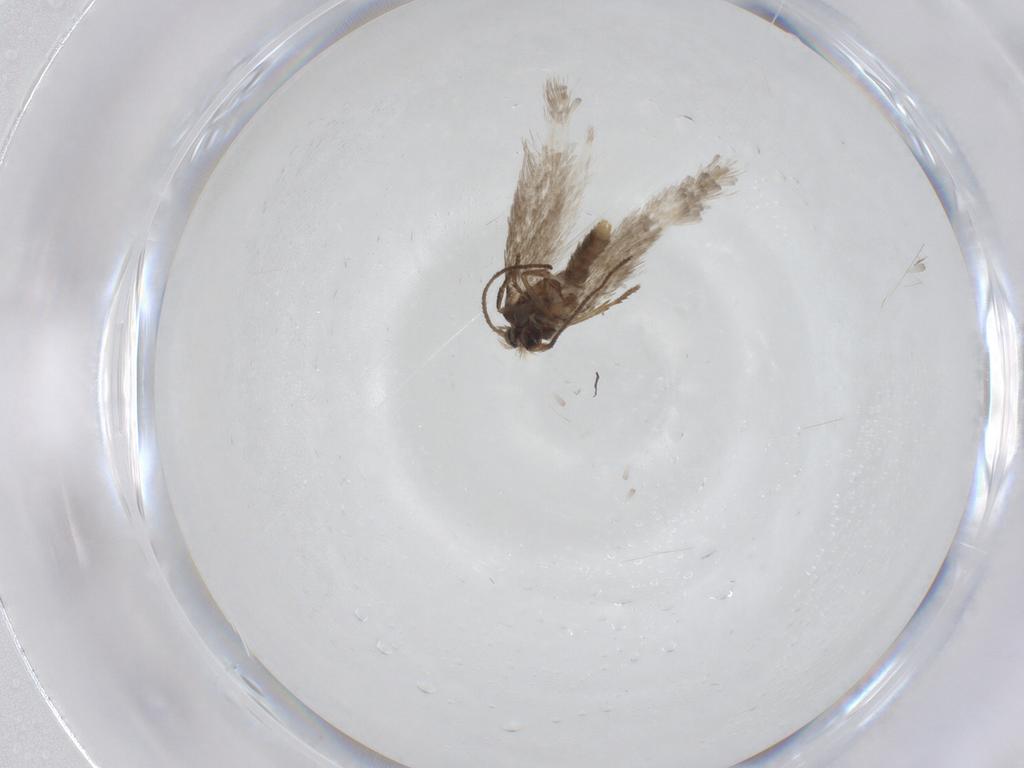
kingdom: Animalia
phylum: Arthropoda
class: Insecta
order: Lepidoptera
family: Nepticulidae
